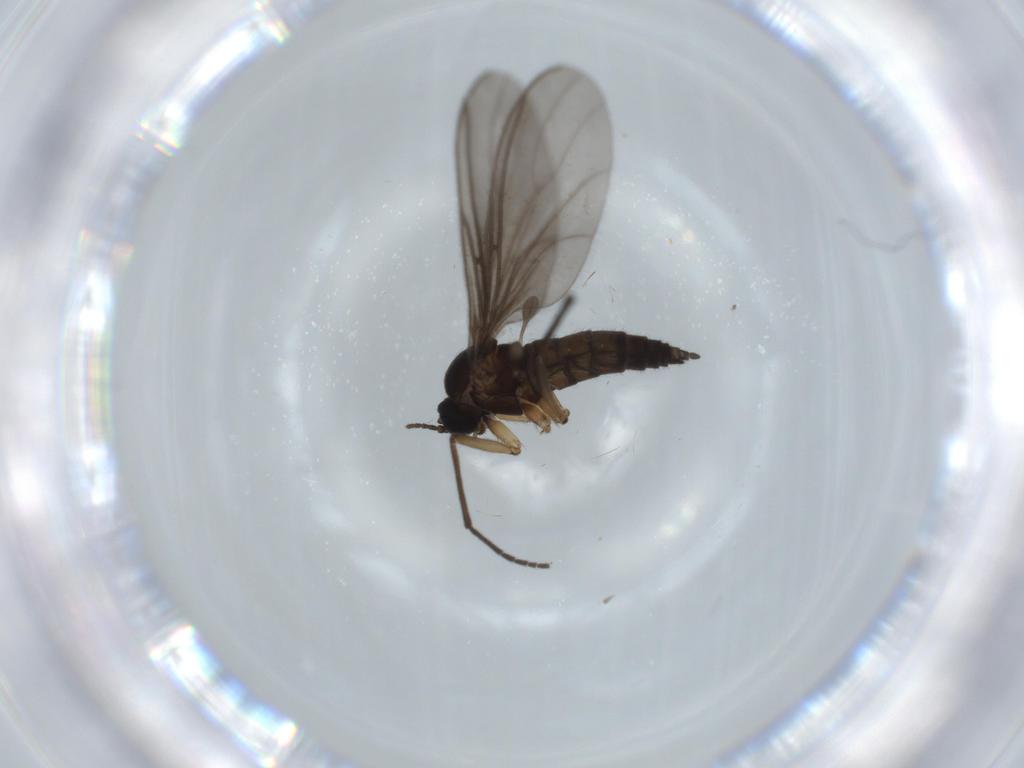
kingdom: Animalia
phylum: Arthropoda
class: Insecta
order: Diptera
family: Sciaridae
